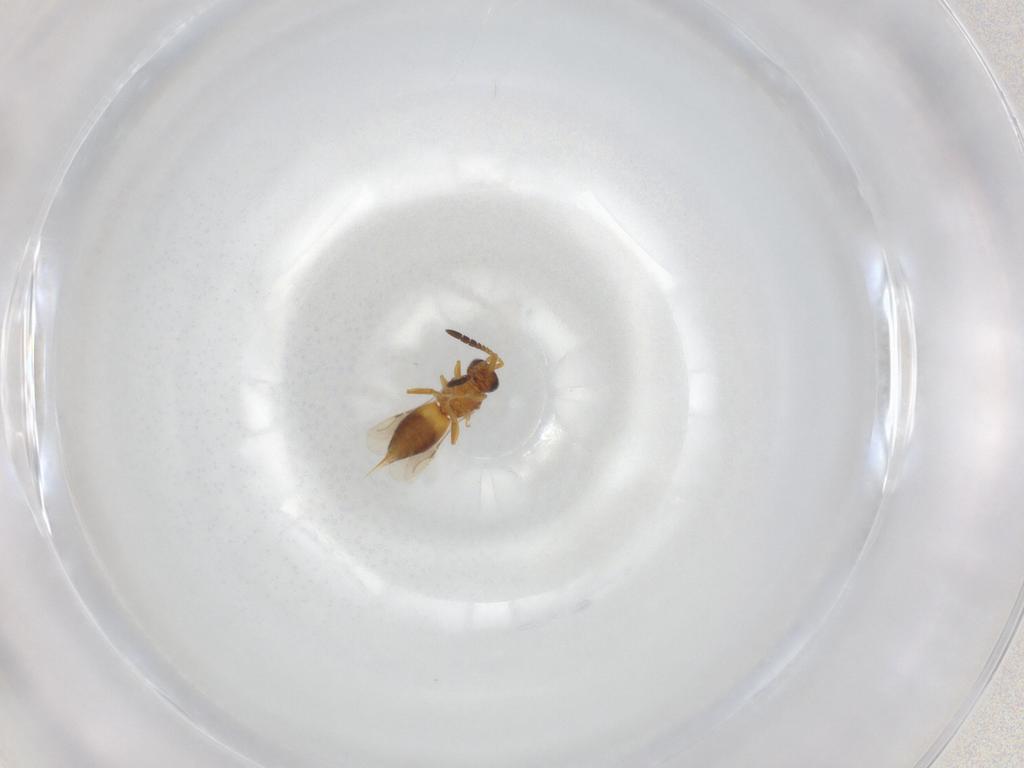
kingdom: Animalia
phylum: Arthropoda
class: Insecta
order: Hymenoptera
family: Ceraphronidae
